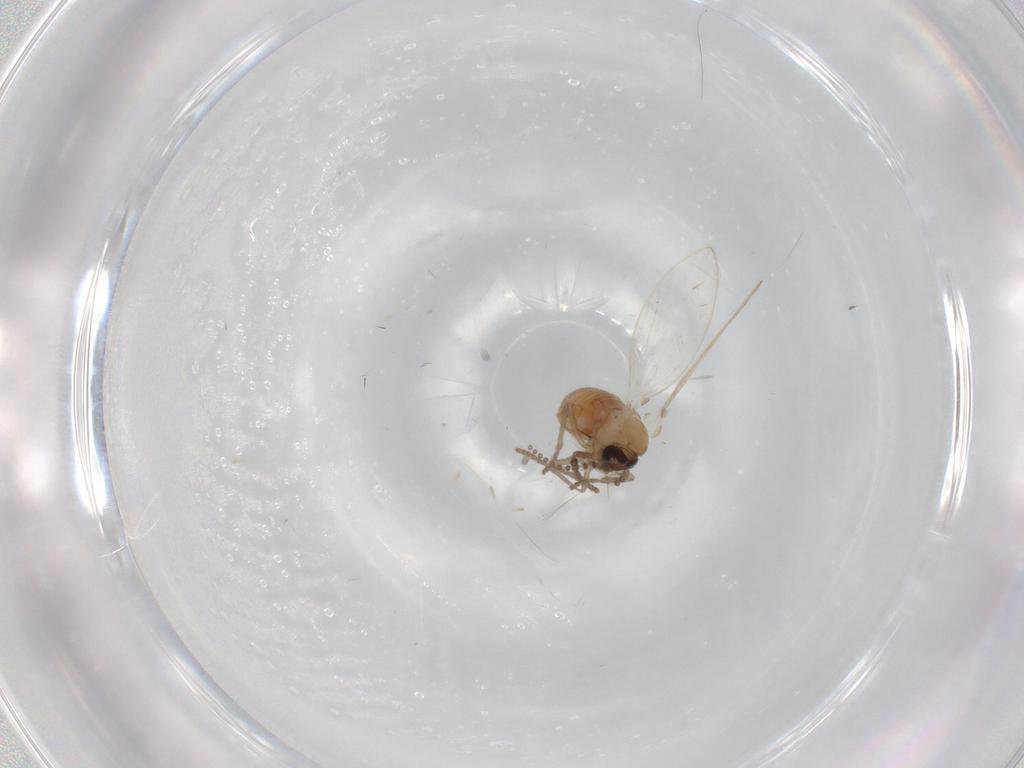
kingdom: Animalia
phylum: Arthropoda
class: Insecta
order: Diptera
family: Psychodidae
